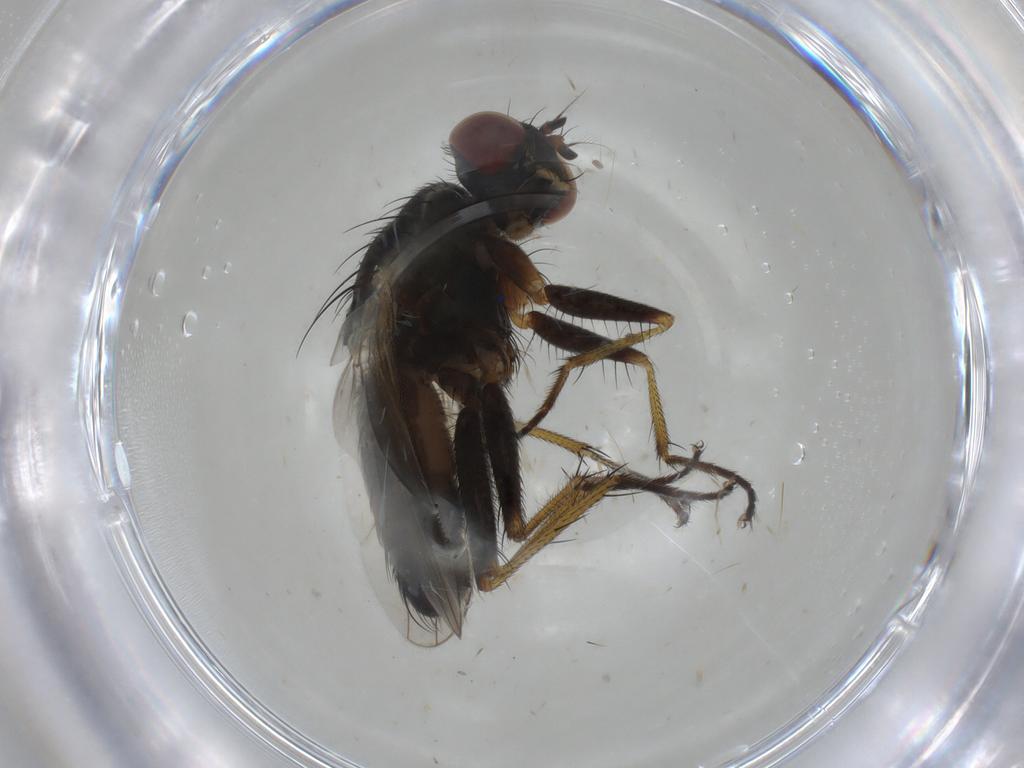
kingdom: Animalia
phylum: Arthropoda
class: Insecta
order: Diptera
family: Muscidae
